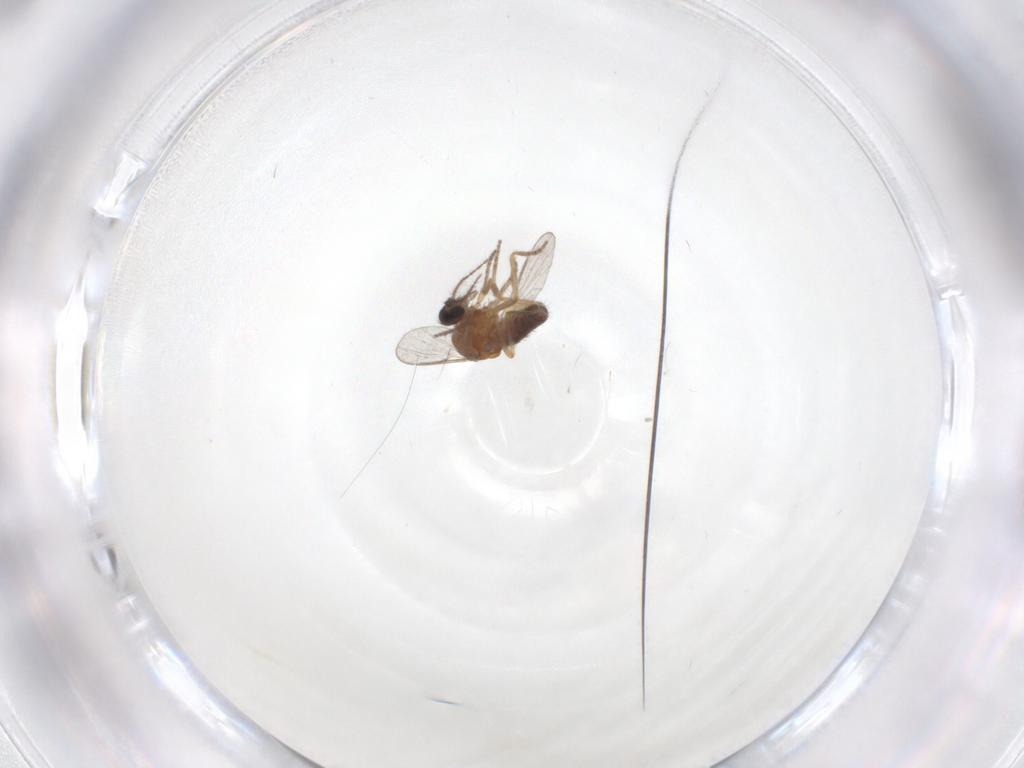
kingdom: Animalia
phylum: Arthropoda
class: Insecta
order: Diptera
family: Ceratopogonidae
